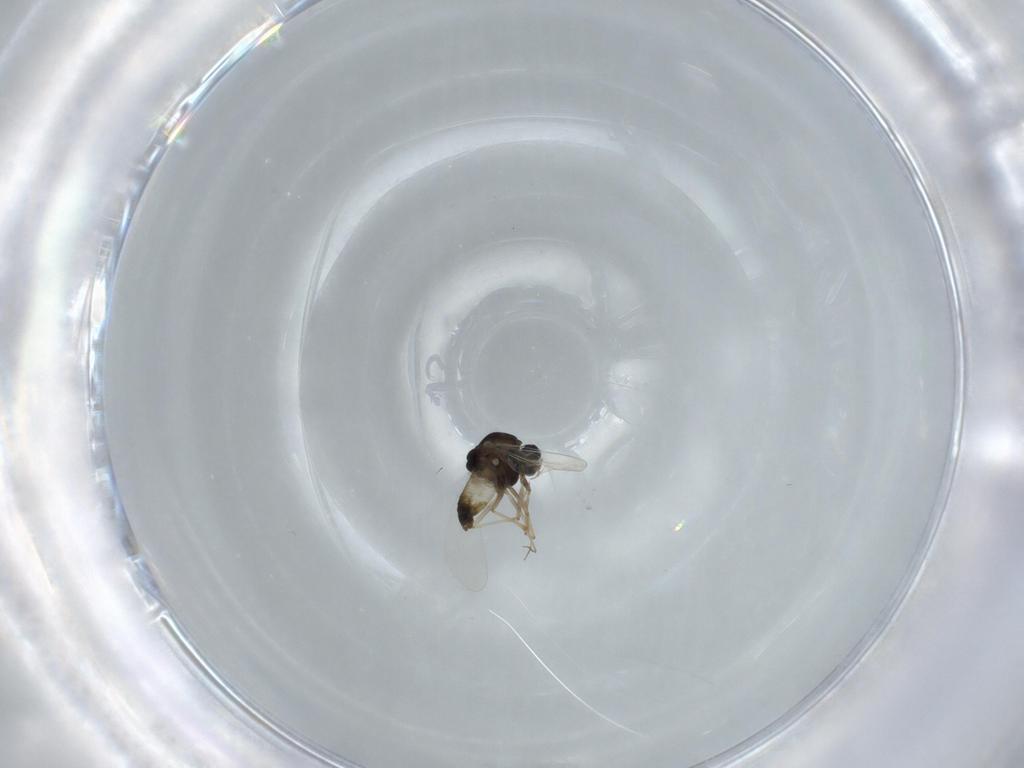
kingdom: Animalia
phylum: Arthropoda
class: Insecta
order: Diptera
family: Chironomidae
